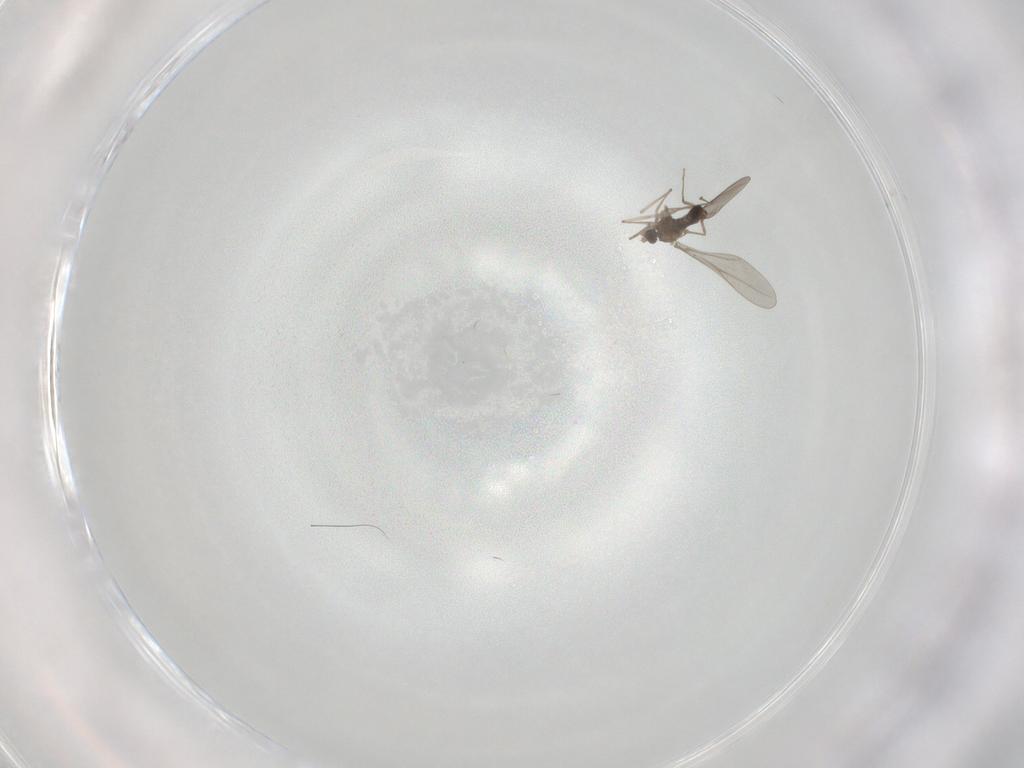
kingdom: Animalia
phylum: Arthropoda
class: Insecta
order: Diptera
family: Cecidomyiidae
